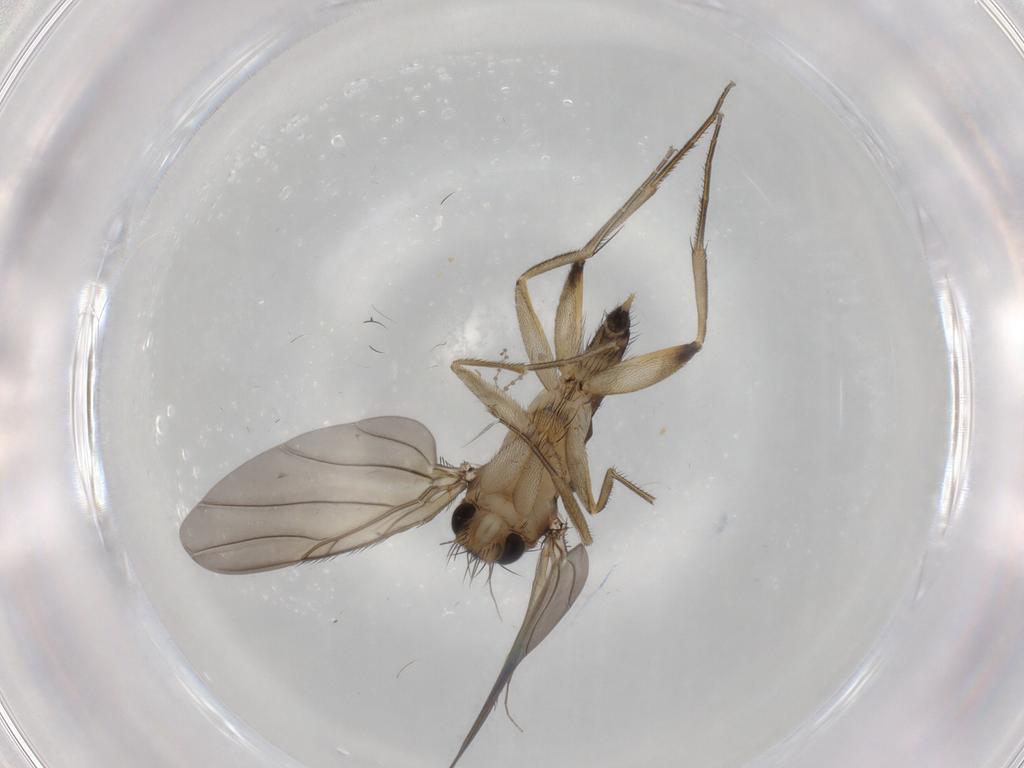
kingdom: Animalia
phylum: Arthropoda
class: Insecta
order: Diptera
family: Phoridae
